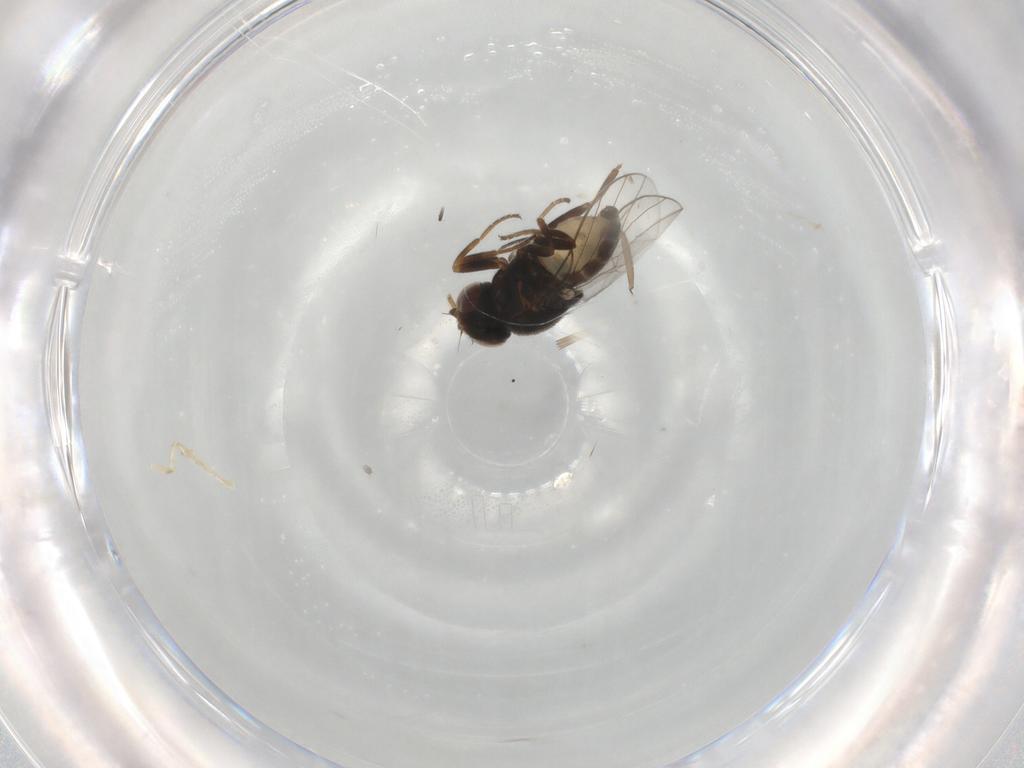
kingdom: Animalia
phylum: Arthropoda
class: Insecta
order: Diptera
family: Chloropidae
